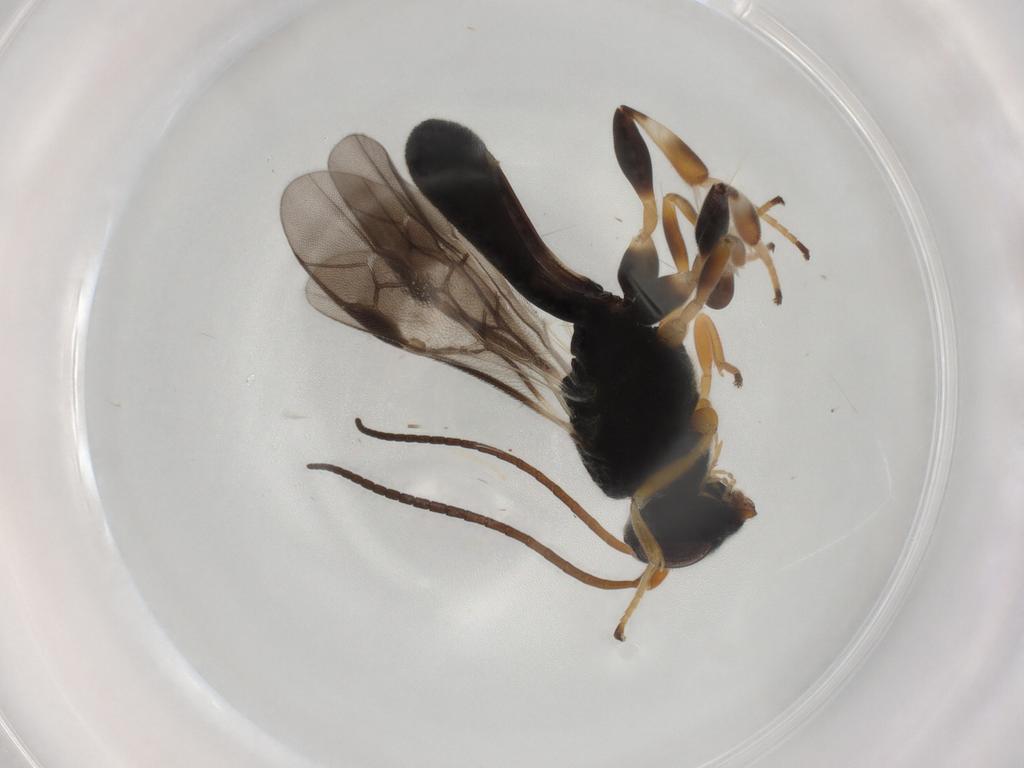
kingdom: Animalia
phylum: Arthropoda
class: Insecta
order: Hymenoptera
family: Braconidae
